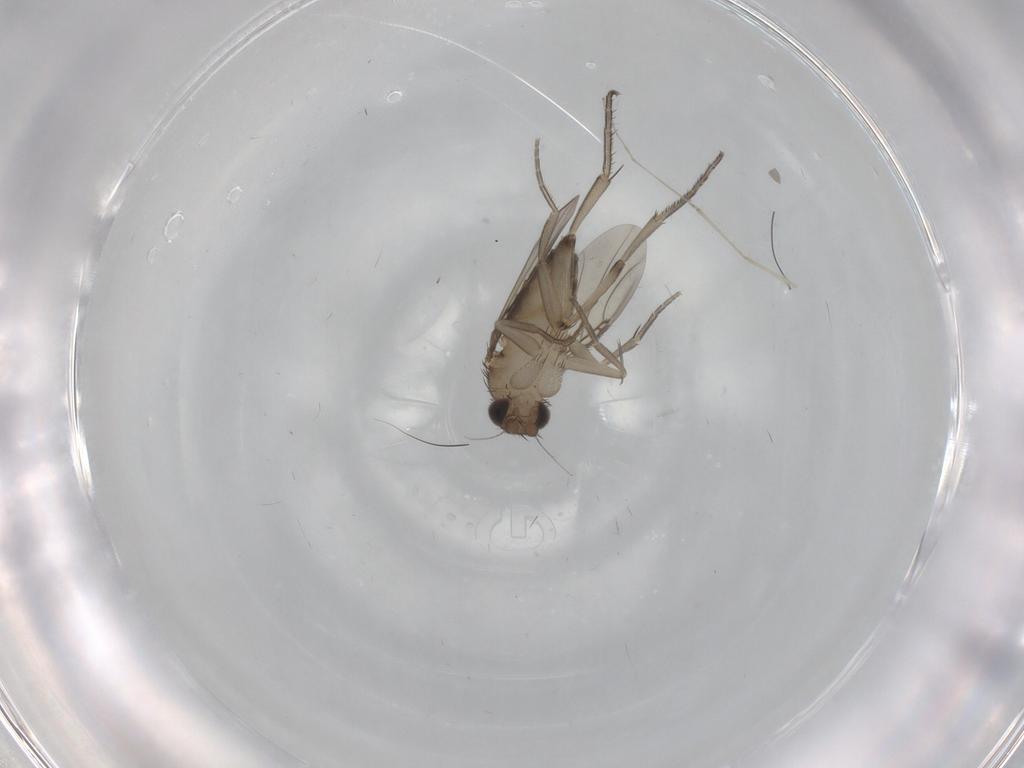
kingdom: Animalia
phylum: Arthropoda
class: Insecta
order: Diptera
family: Phoridae
